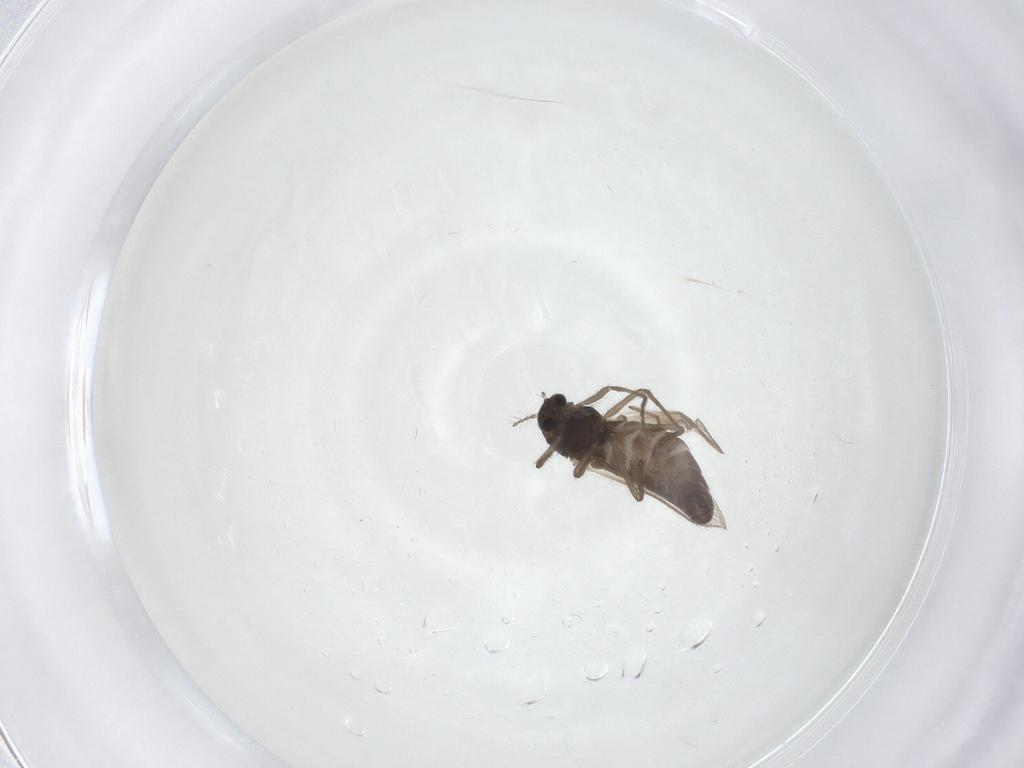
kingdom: Animalia
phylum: Arthropoda
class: Insecta
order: Diptera
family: Chironomidae
